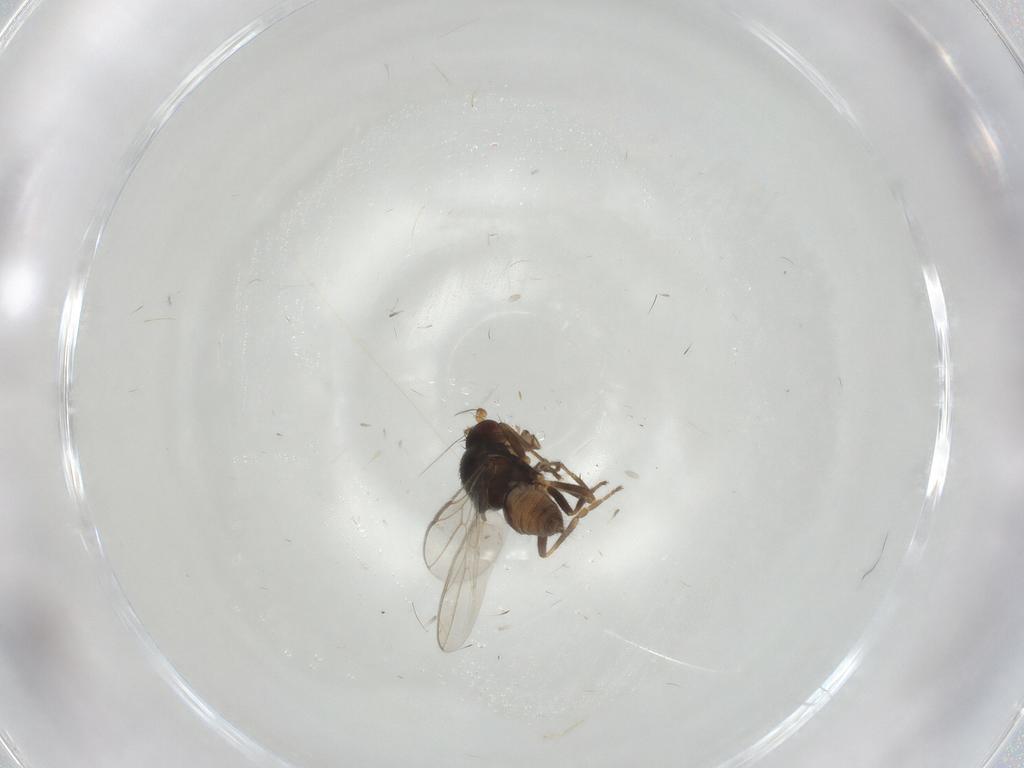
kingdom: Animalia
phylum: Arthropoda
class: Insecta
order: Diptera
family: Sphaeroceridae
